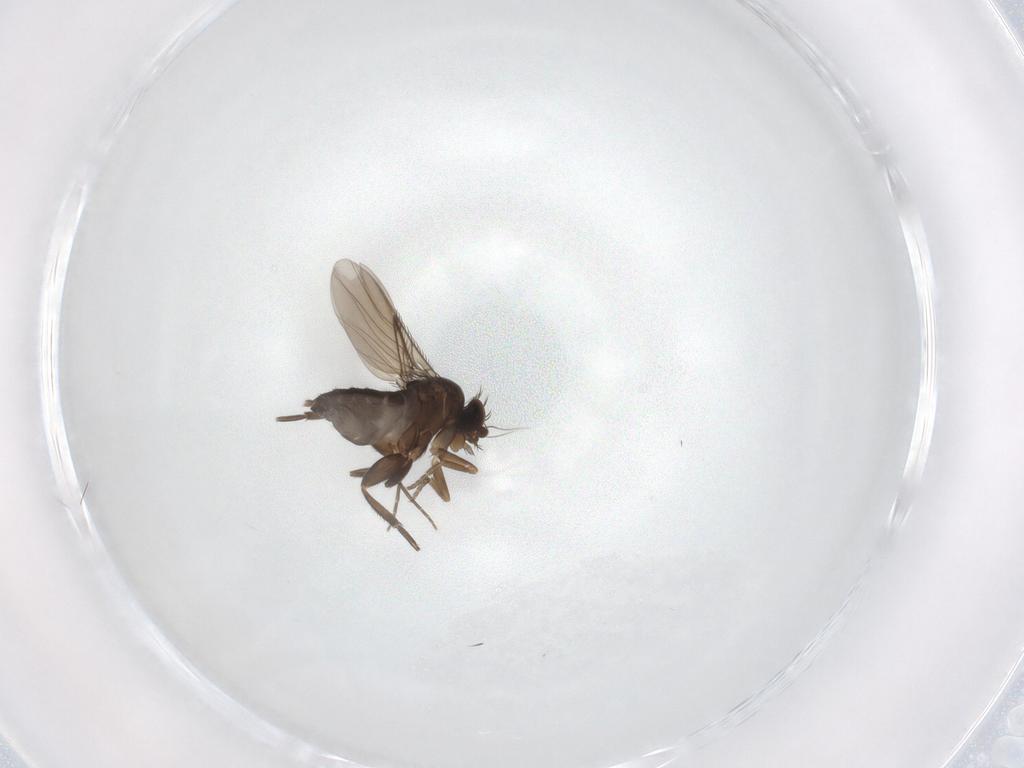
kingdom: Animalia
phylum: Arthropoda
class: Insecta
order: Diptera
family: Phoridae
